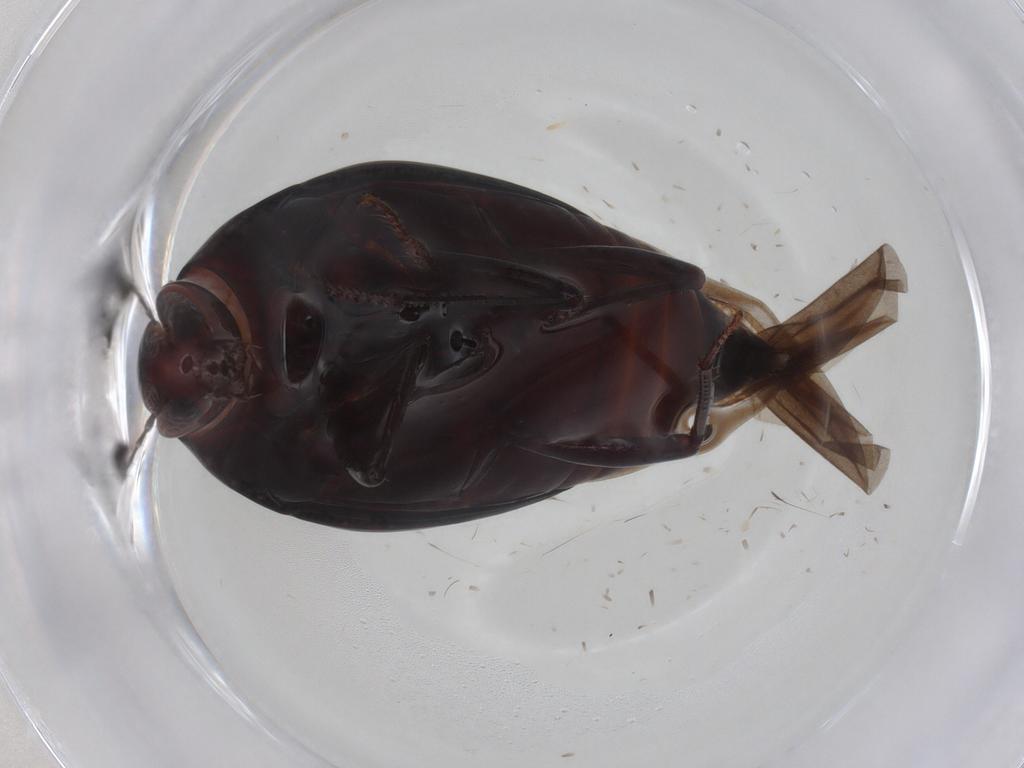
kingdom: Animalia
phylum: Arthropoda
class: Insecta
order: Coleoptera
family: Staphylinidae
